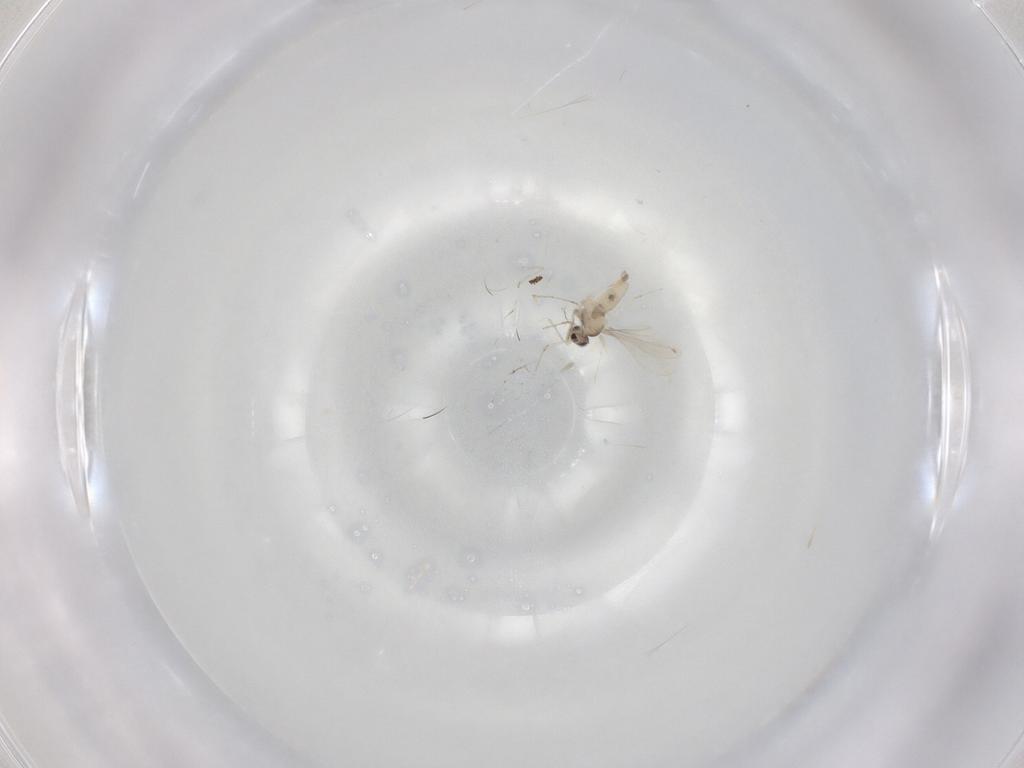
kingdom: Animalia
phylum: Arthropoda
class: Insecta
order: Diptera
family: Cecidomyiidae
